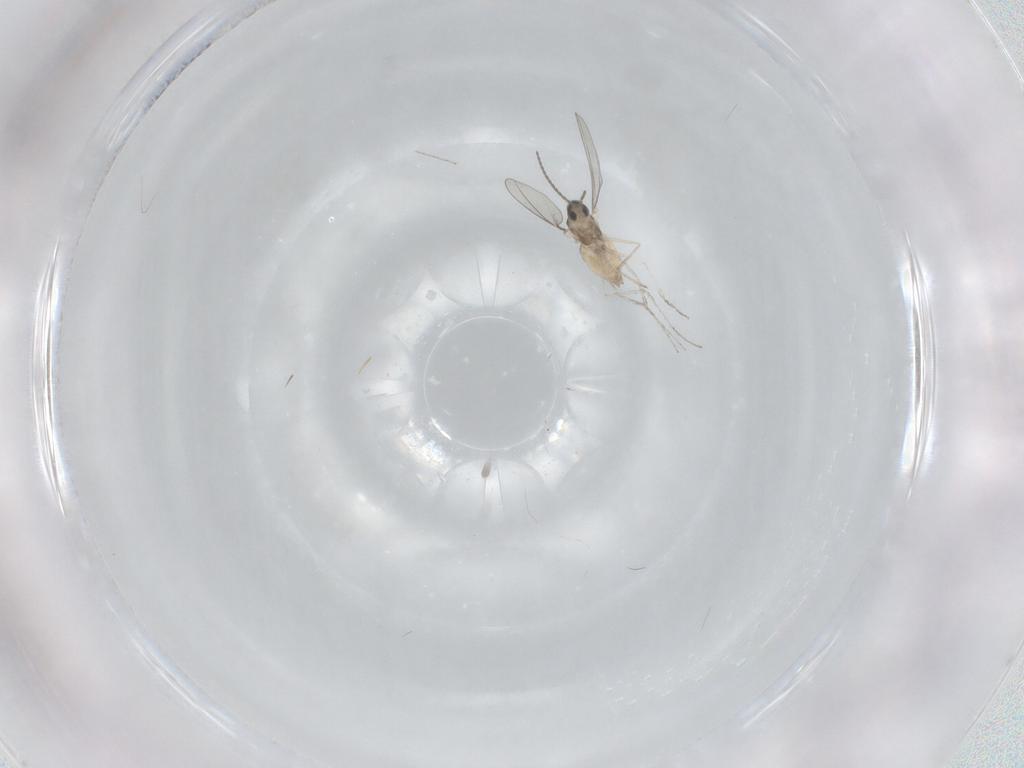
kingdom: Animalia
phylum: Arthropoda
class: Insecta
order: Diptera
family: Cecidomyiidae
